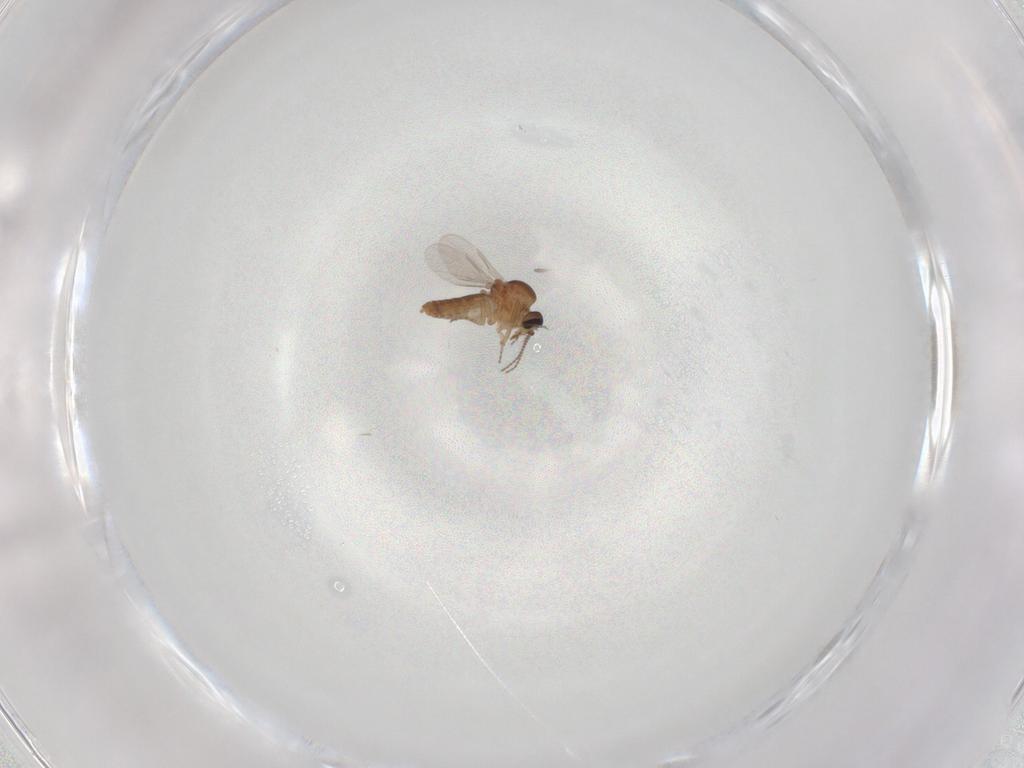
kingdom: Animalia
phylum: Arthropoda
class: Insecta
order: Diptera
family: Ceratopogonidae
